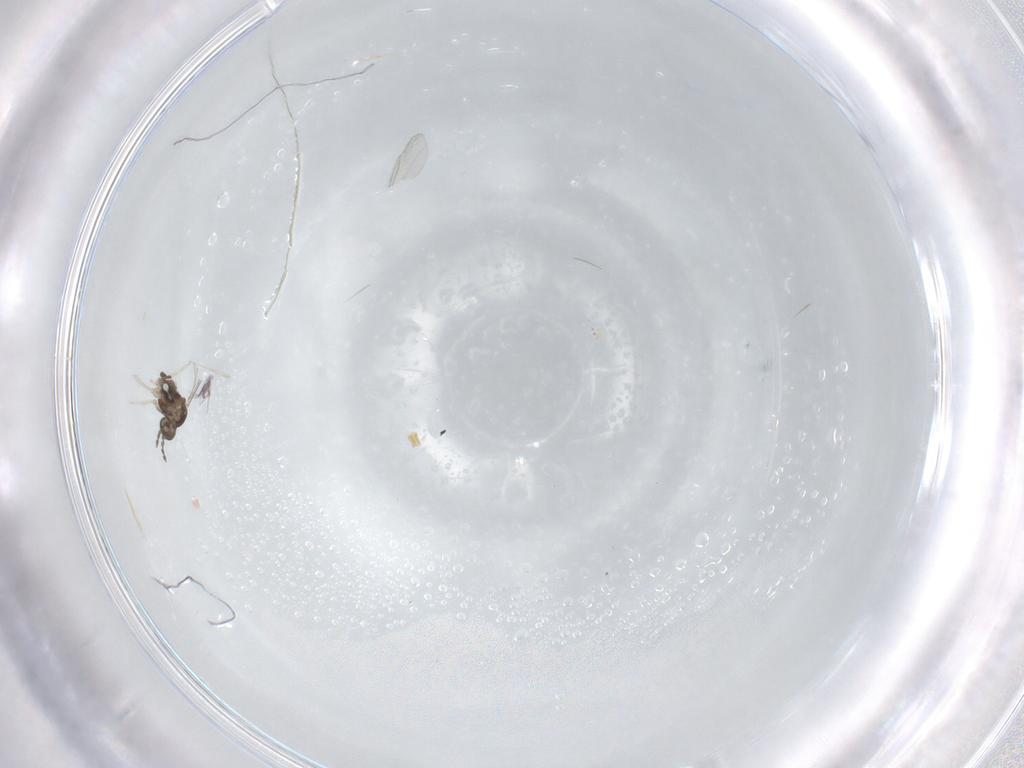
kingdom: Animalia
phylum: Arthropoda
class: Insecta
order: Diptera
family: Cecidomyiidae
